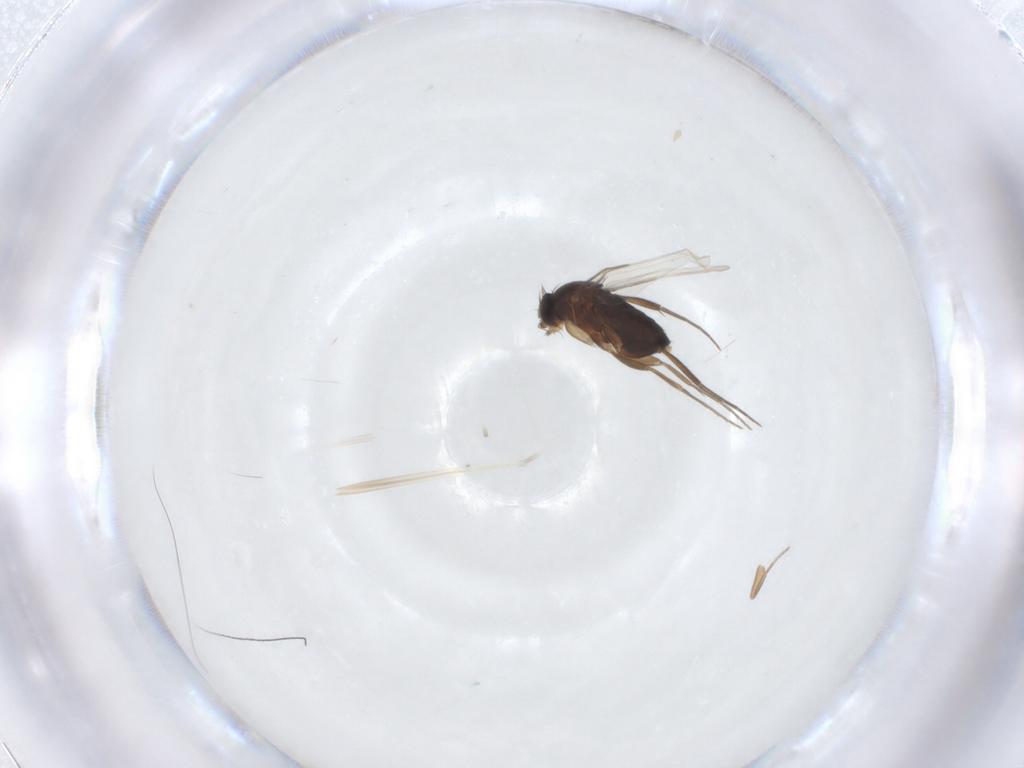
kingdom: Animalia
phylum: Arthropoda
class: Insecta
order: Diptera
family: Phoridae
